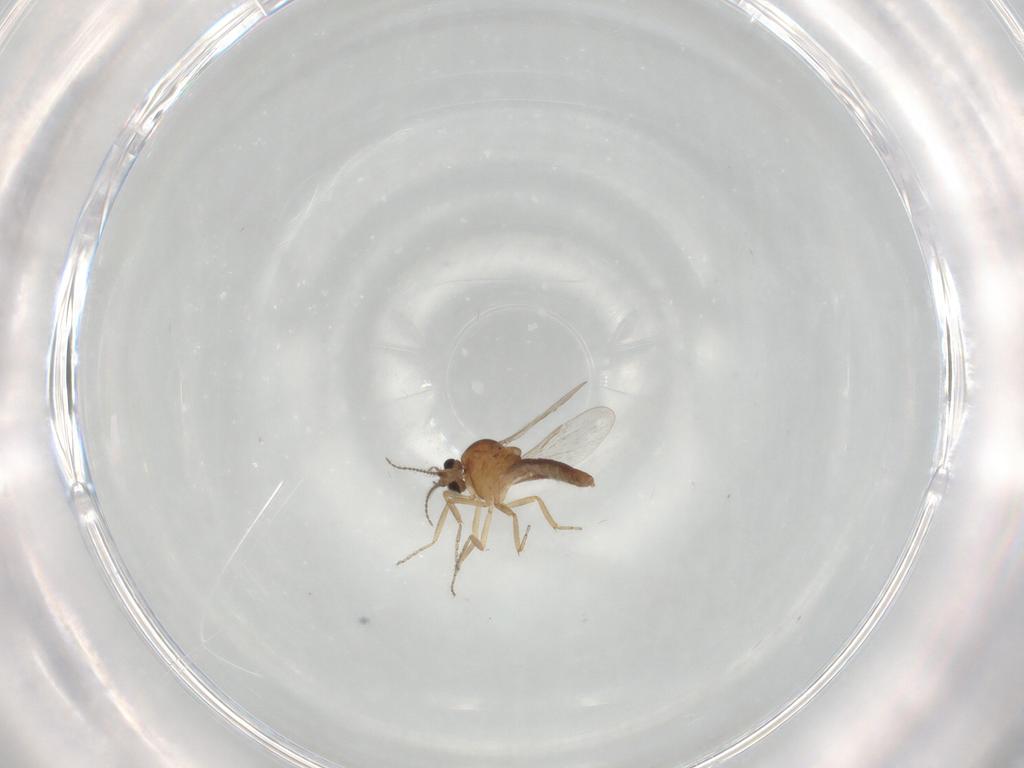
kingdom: Animalia
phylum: Arthropoda
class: Insecta
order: Diptera
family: Ceratopogonidae
